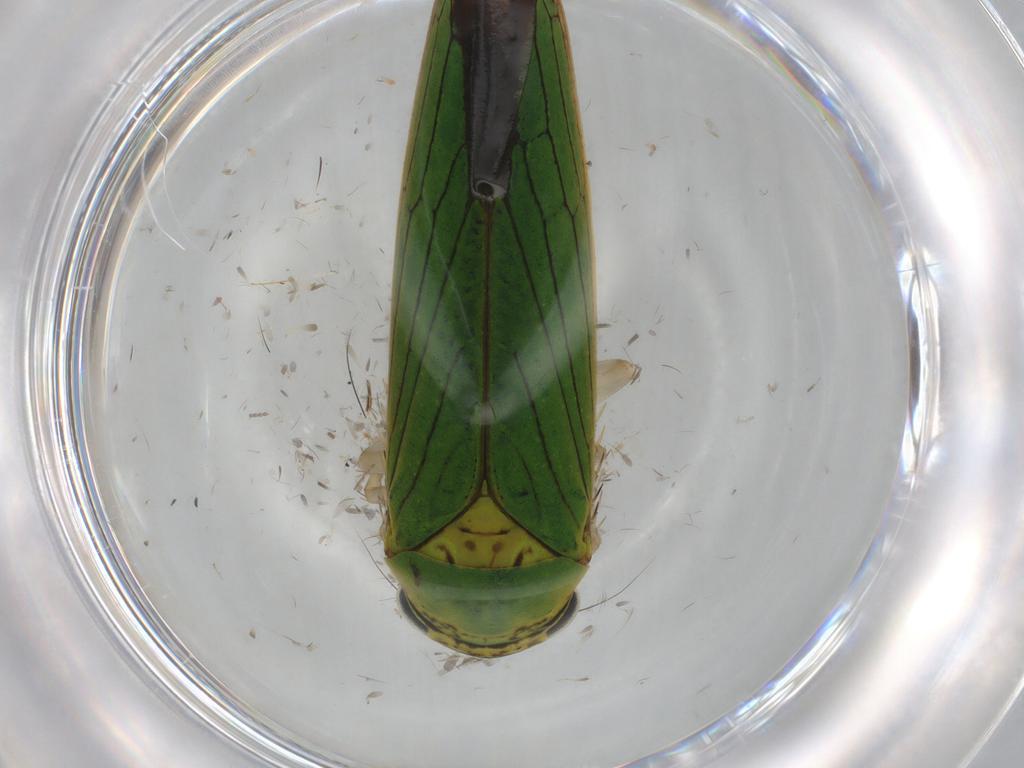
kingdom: Animalia
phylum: Arthropoda
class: Insecta
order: Hemiptera
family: Cicadellidae
